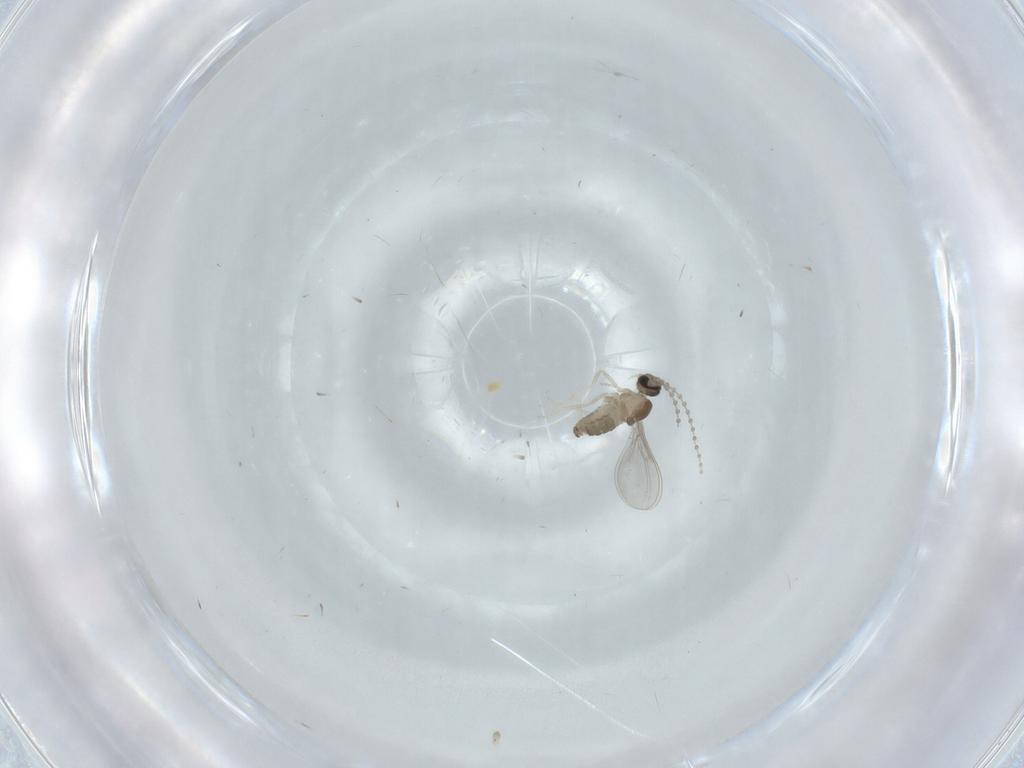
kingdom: Animalia
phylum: Arthropoda
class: Insecta
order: Diptera
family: Cecidomyiidae
